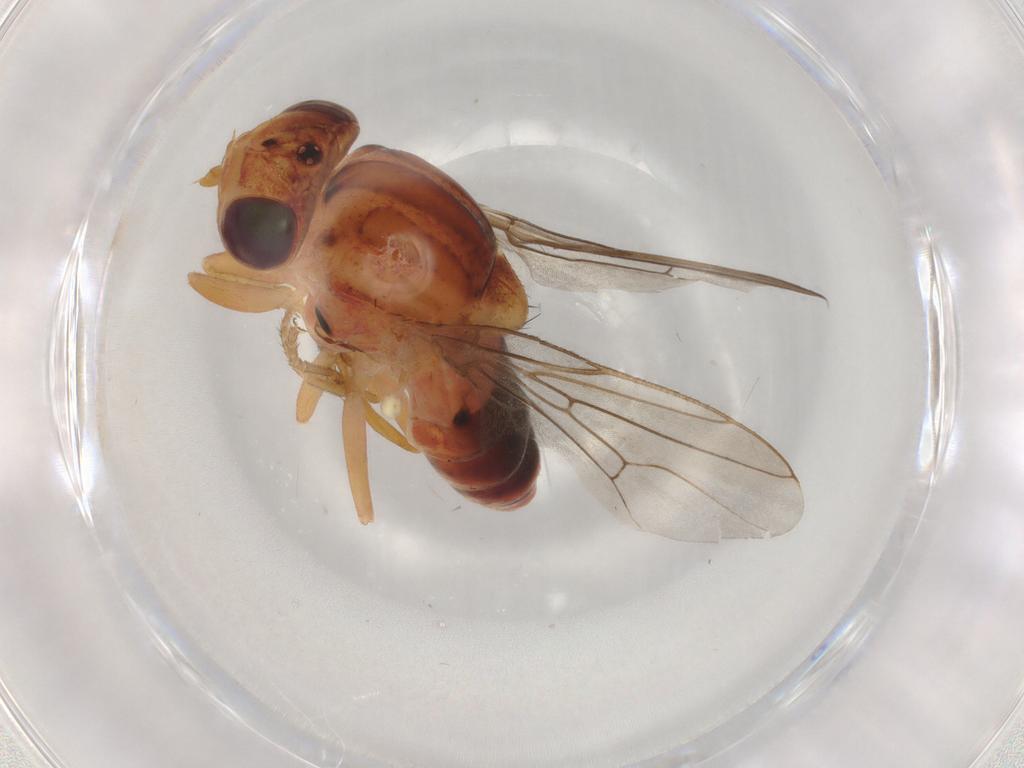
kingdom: Animalia
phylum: Arthropoda
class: Insecta
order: Diptera
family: Chloropidae
